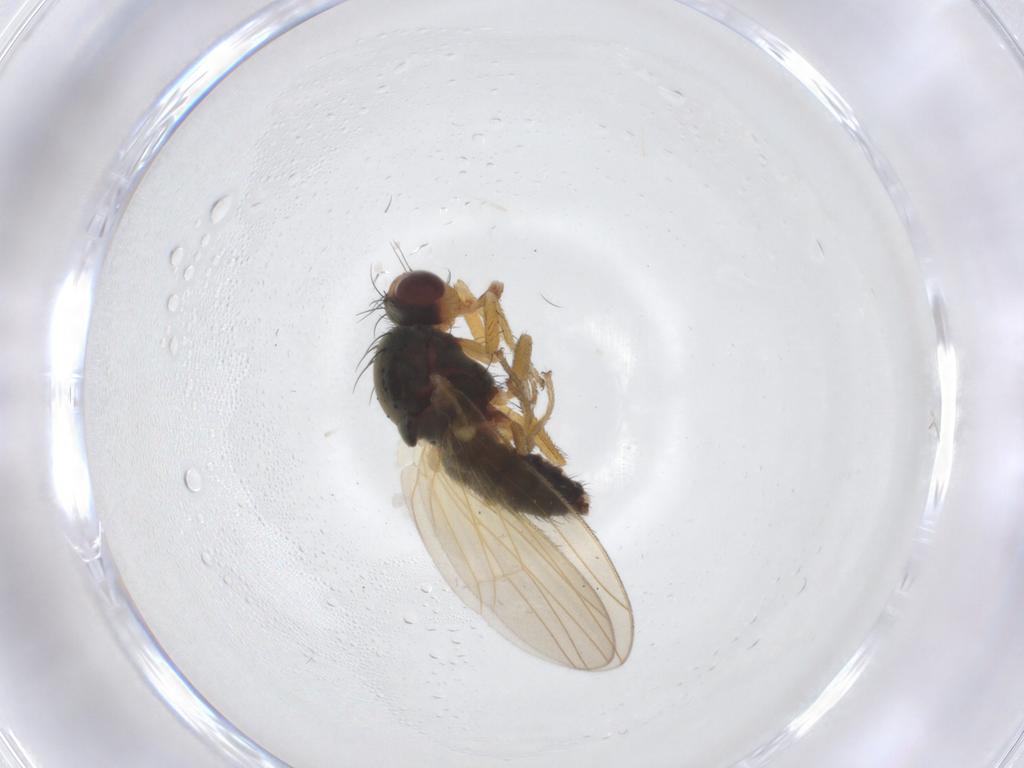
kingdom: Animalia
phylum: Arthropoda
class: Insecta
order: Diptera
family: Heleomyzidae
